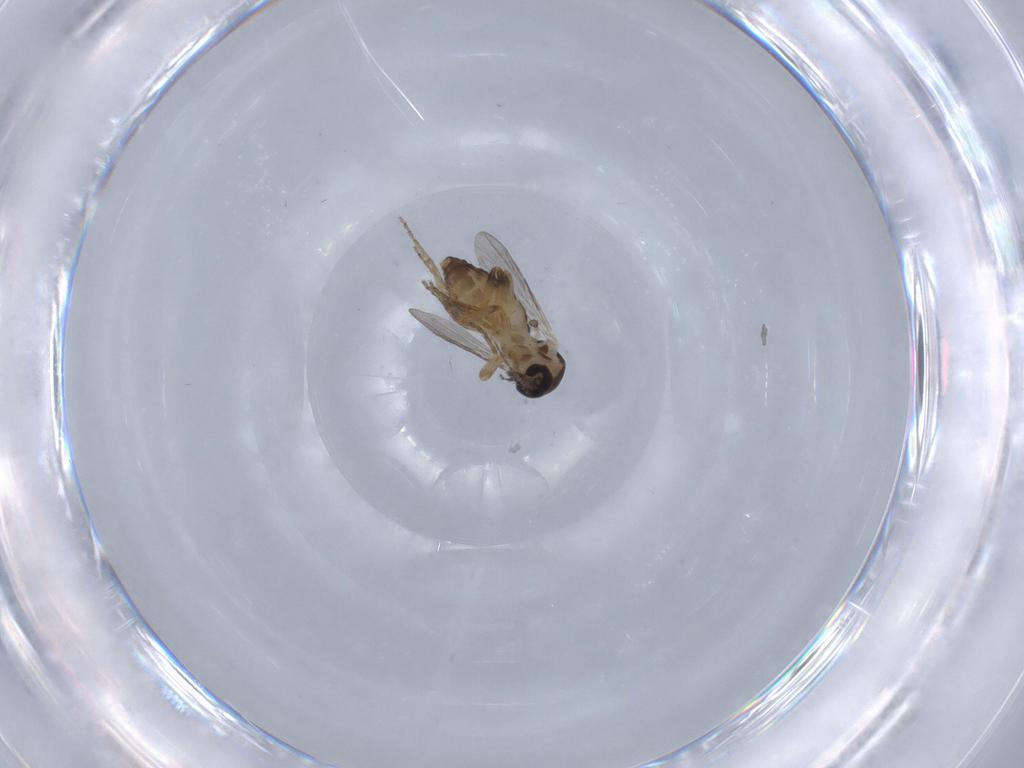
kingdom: Animalia
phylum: Arthropoda
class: Insecta
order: Diptera
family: Ceratopogonidae
